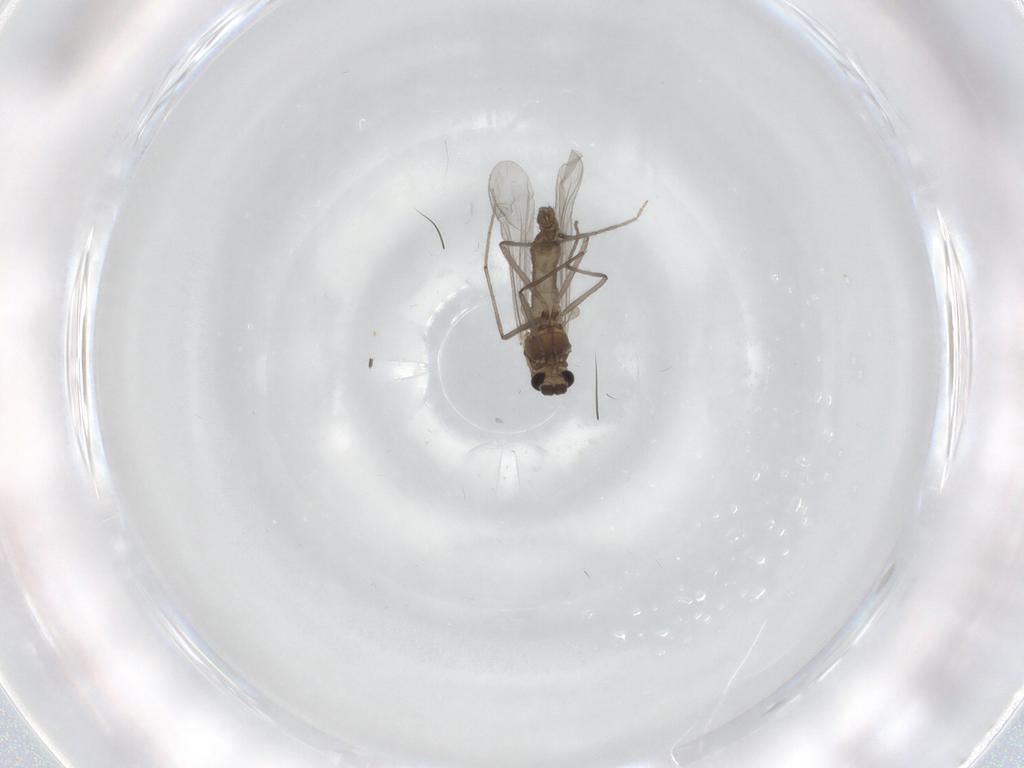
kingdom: Animalia
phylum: Arthropoda
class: Insecta
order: Diptera
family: Chironomidae
